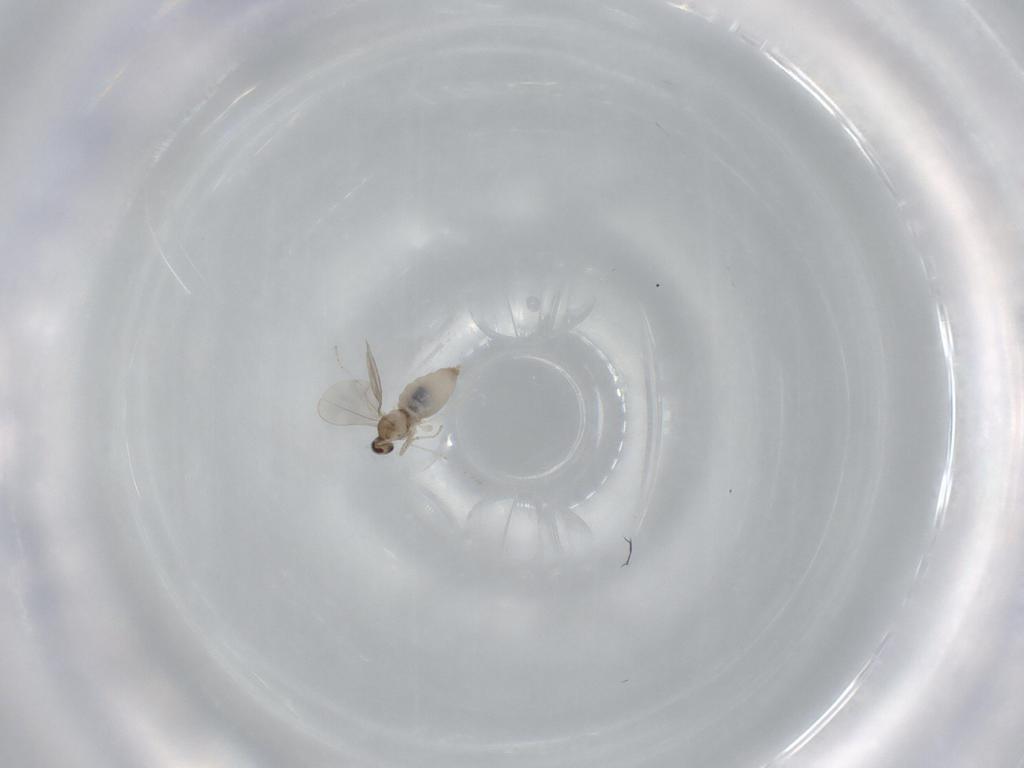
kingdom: Animalia
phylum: Arthropoda
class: Insecta
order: Diptera
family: Cecidomyiidae
